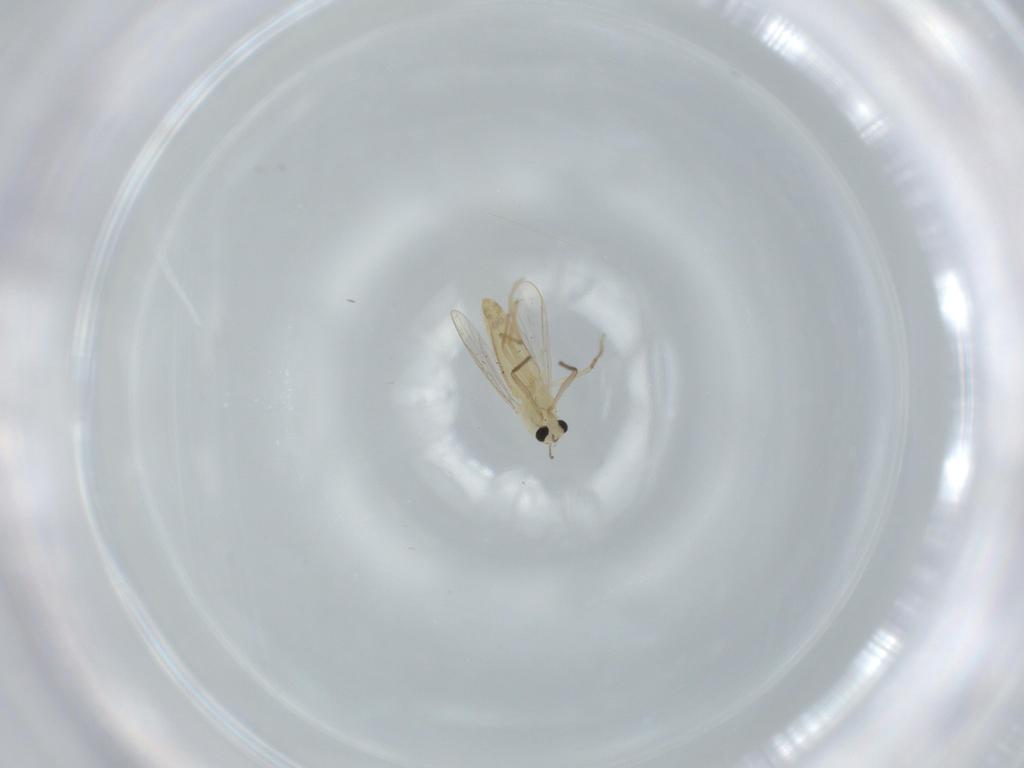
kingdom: Animalia
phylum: Arthropoda
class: Insecta
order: Diptera
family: Chironomidae
